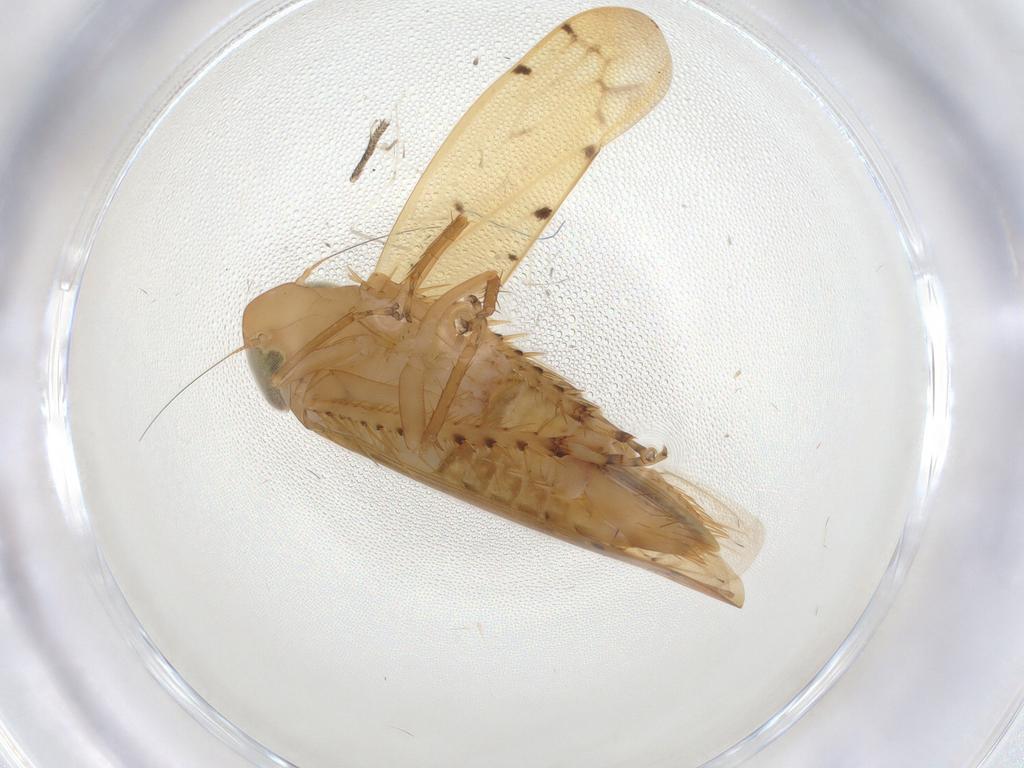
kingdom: Animalia
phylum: Arthropoda
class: Insecta
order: Hemiptera
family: Cicadellidae
